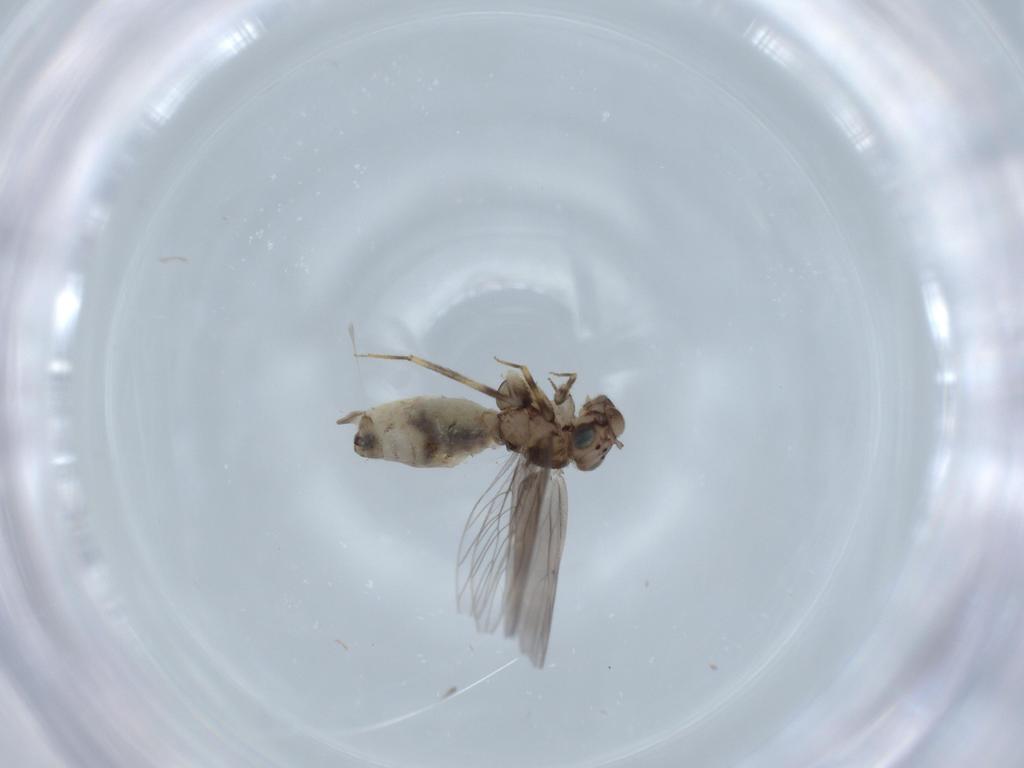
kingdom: Animalia
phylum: Arthropoda
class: Insecta
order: Psocodea
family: Lepidopsocidae
